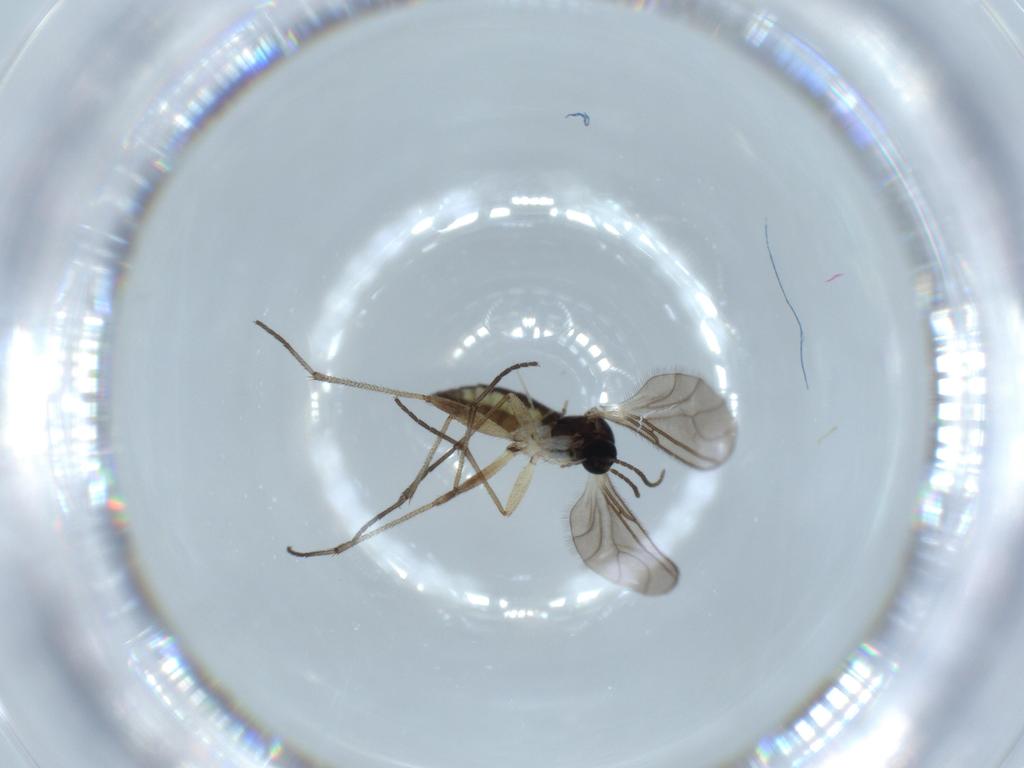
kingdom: Animalia
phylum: Arthropoda
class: Insecta
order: Diptera
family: Sciaridae
